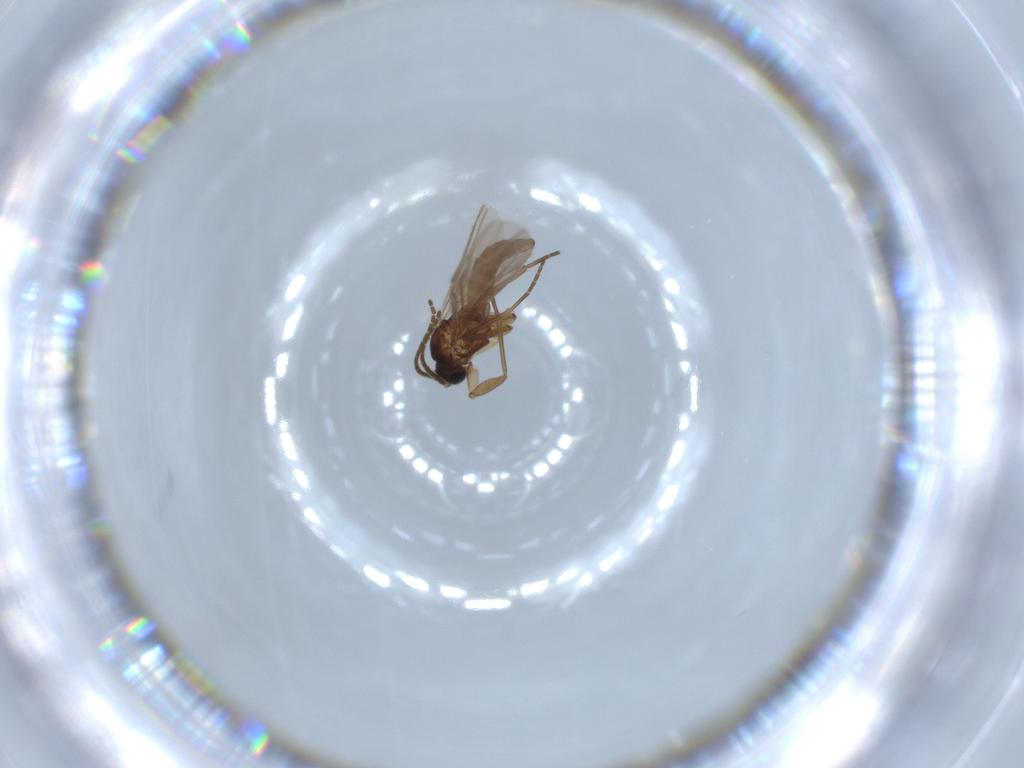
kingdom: Animalia
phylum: Arthropoda
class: Insecta
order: Diptera
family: Sciaridae
